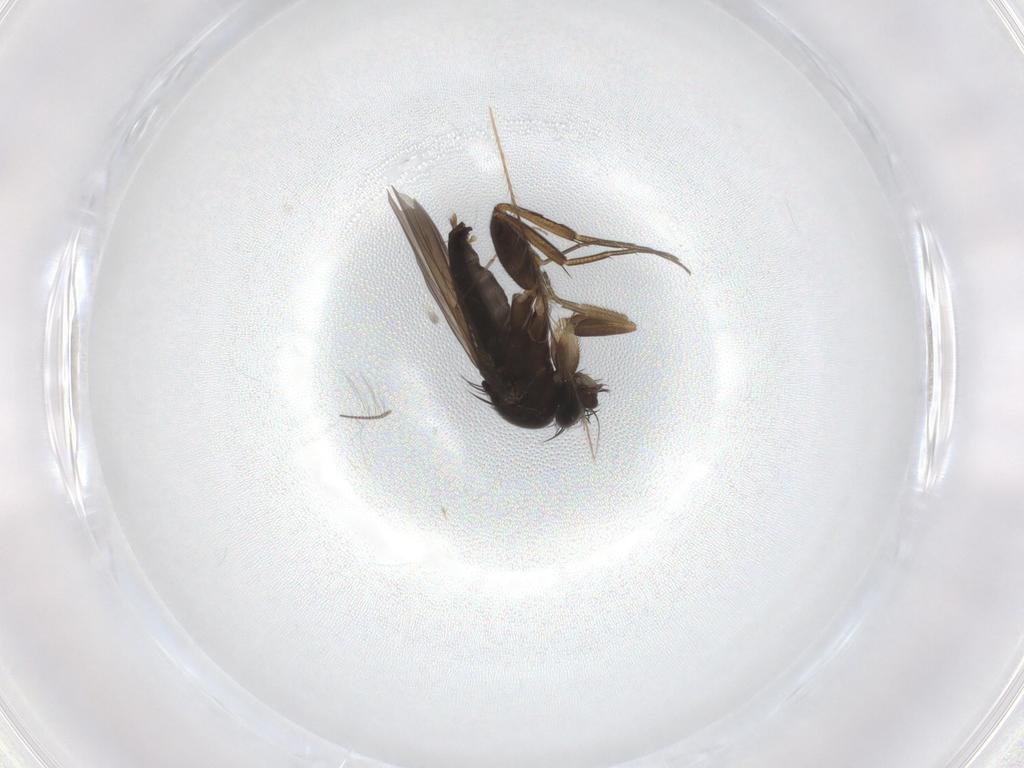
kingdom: Animalia
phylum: Arthropoda
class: Insecta
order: Diptera
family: Phoridae
